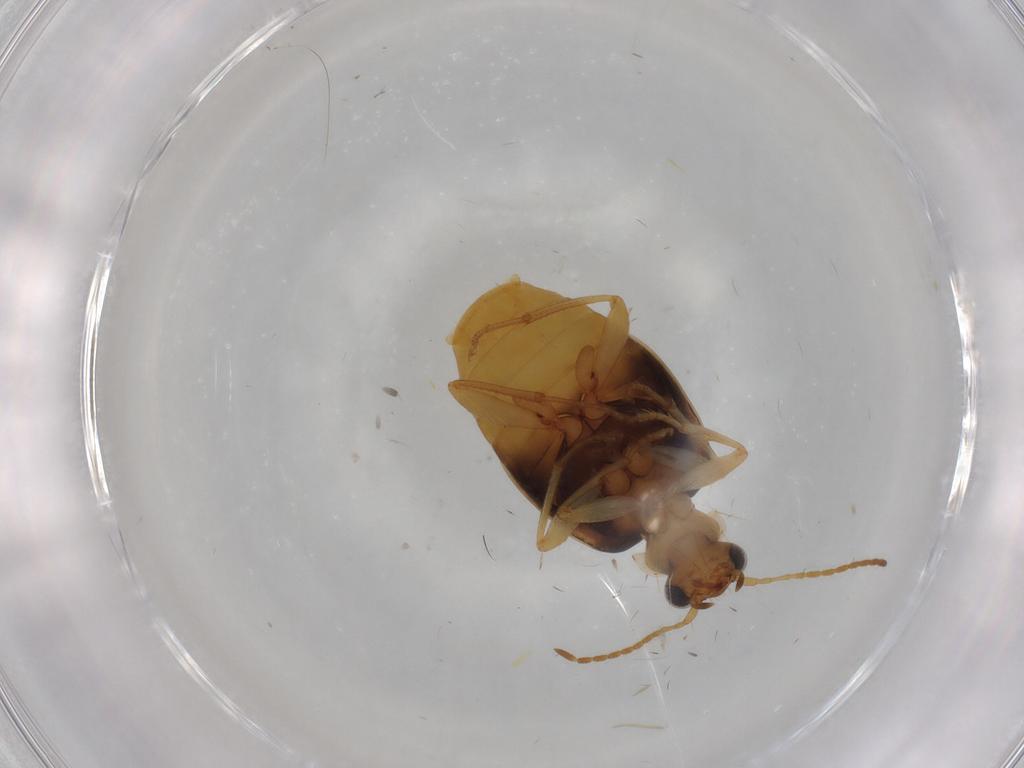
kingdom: Animalia
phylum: Arthropoda
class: Insecta
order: Coleoptera
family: Carabidae
